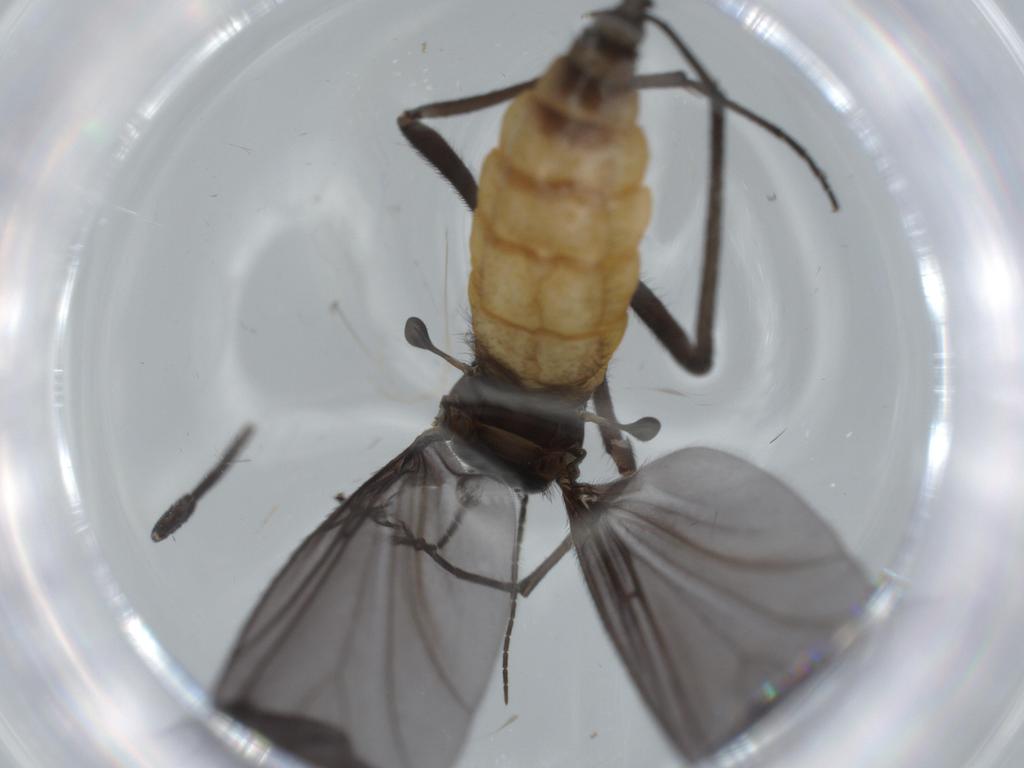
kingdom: Animalia
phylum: Arthropoda
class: Insecta
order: Diptera
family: Chironomidae
